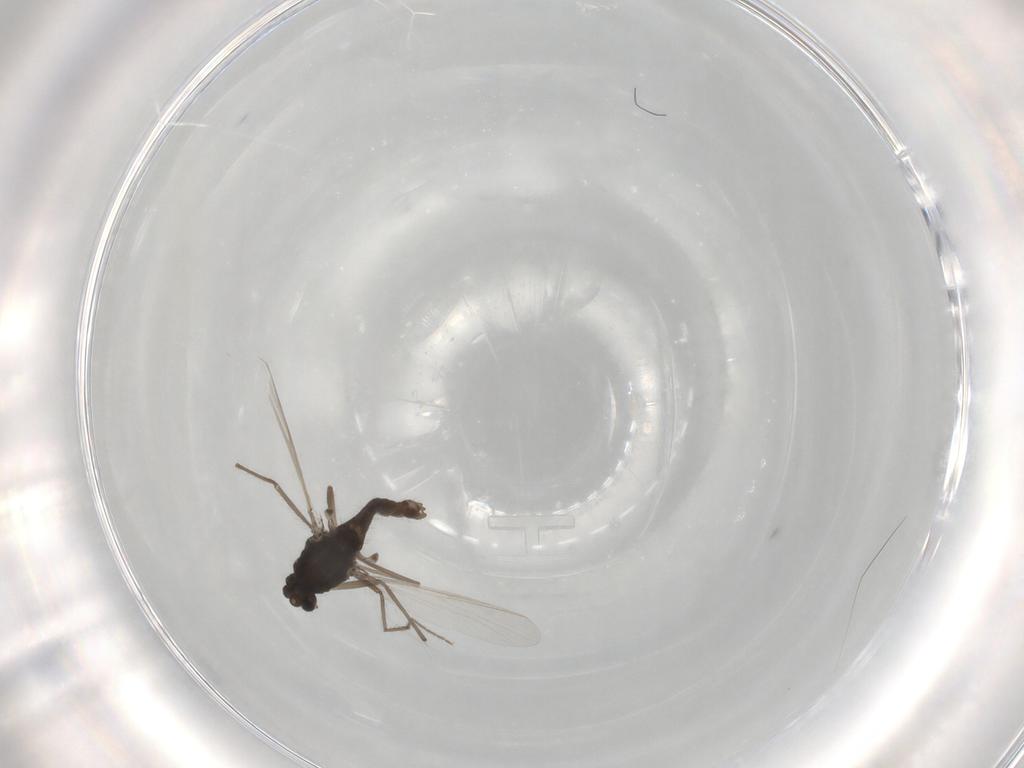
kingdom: Animalia
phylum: Arthropoda
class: Insecta
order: Diptera
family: Chironomidae
